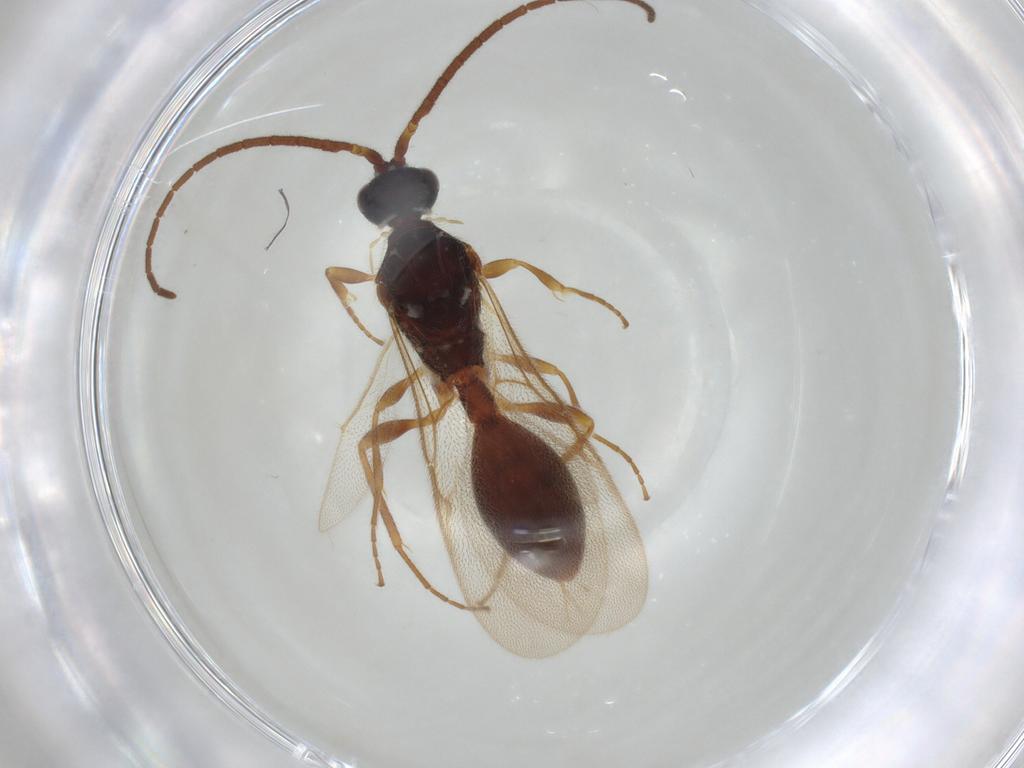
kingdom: Animalia
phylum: Arthropoda
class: Insecta
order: Hymenoptera
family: Diapriidae
